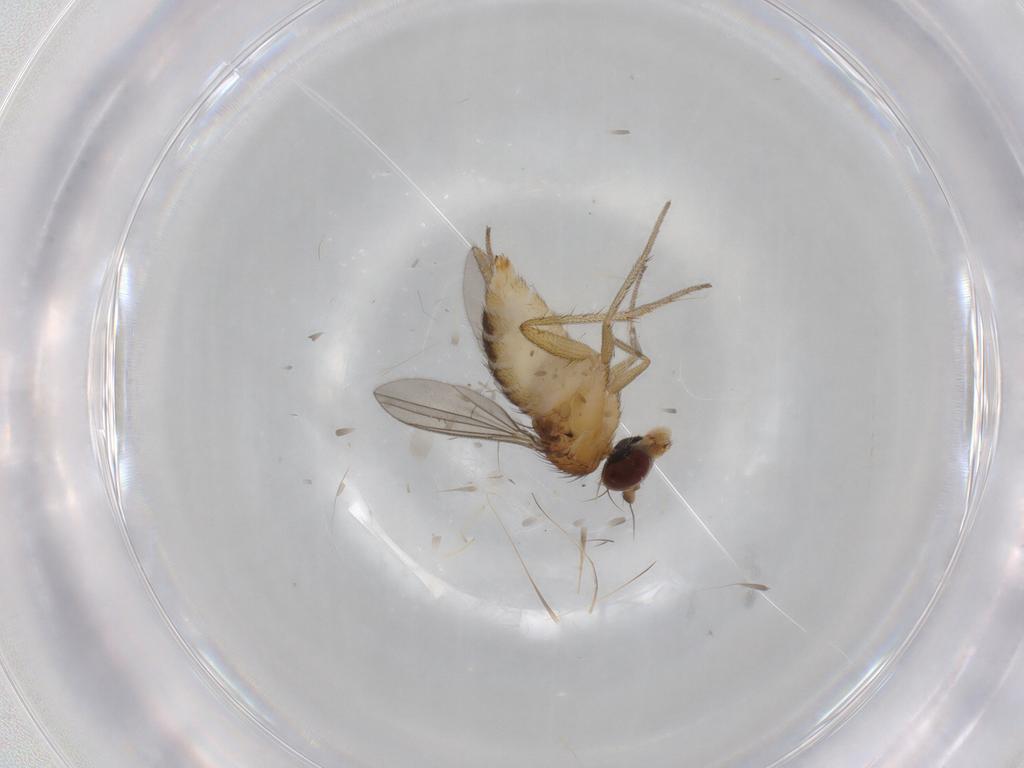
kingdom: Animalia
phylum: Arthropoda
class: Insecta
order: Diptera
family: Dolichopodidae
